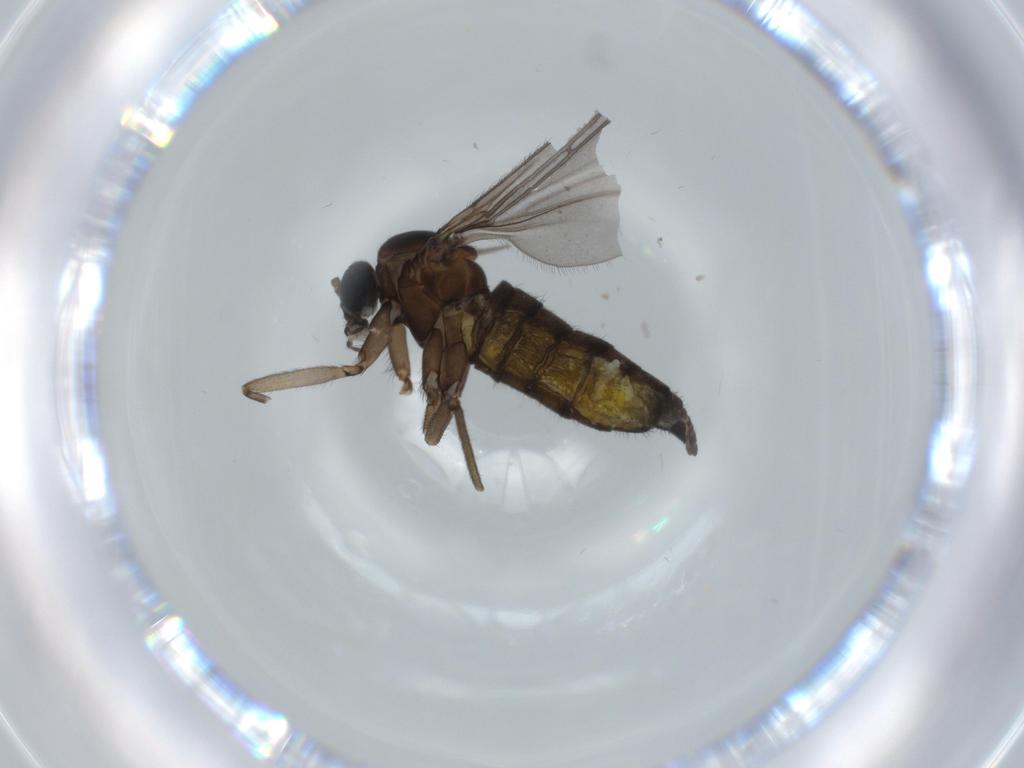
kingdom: Animalia
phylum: Arthropoda
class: Insecta
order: Diptera
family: Sciaridae
